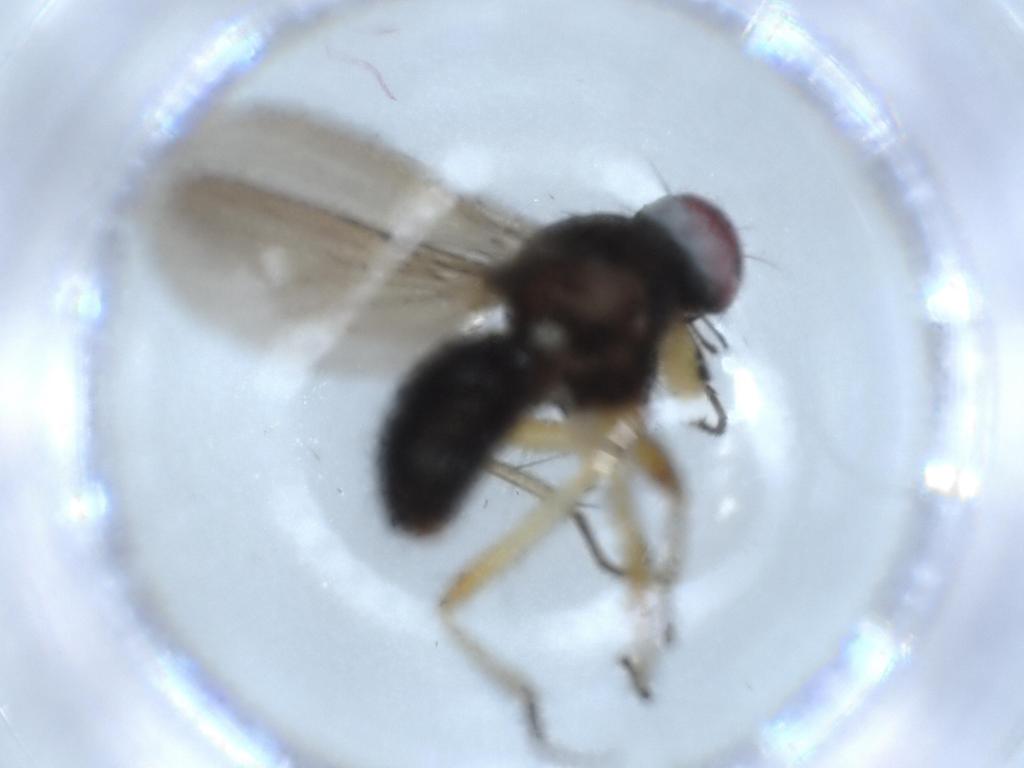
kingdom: Animalia
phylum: Arthropoda
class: Insecta
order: Diptera
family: Muscidae
